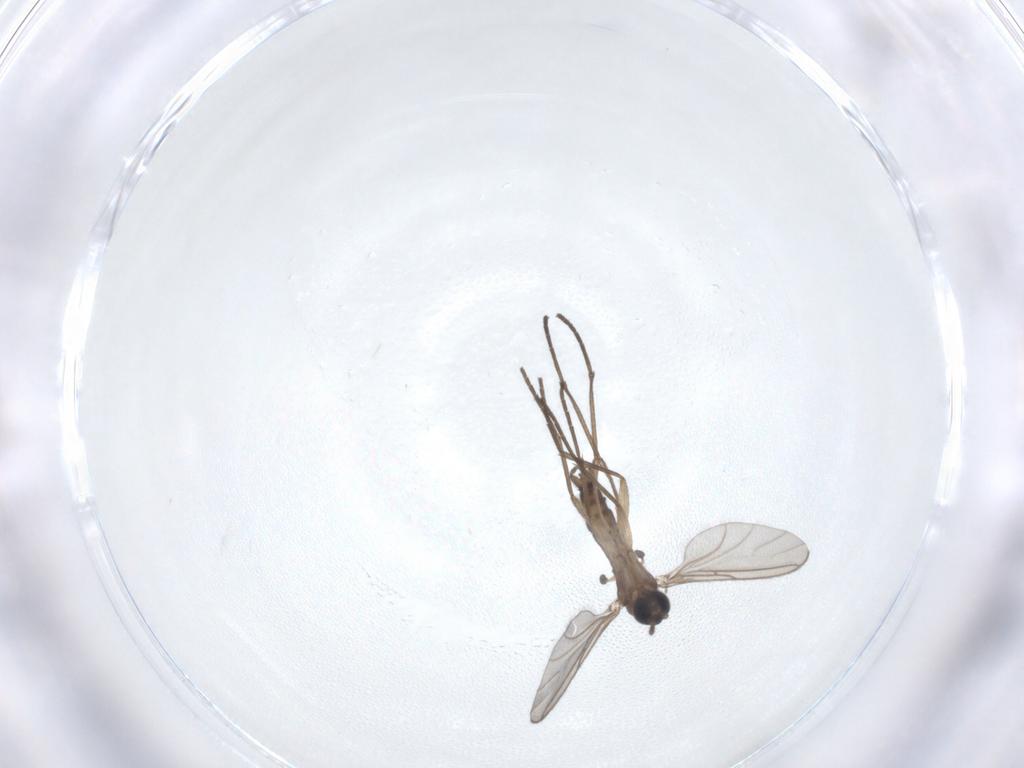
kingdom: Animalia
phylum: Arthropoda
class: Insecta
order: Diptera
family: Sciaridae
